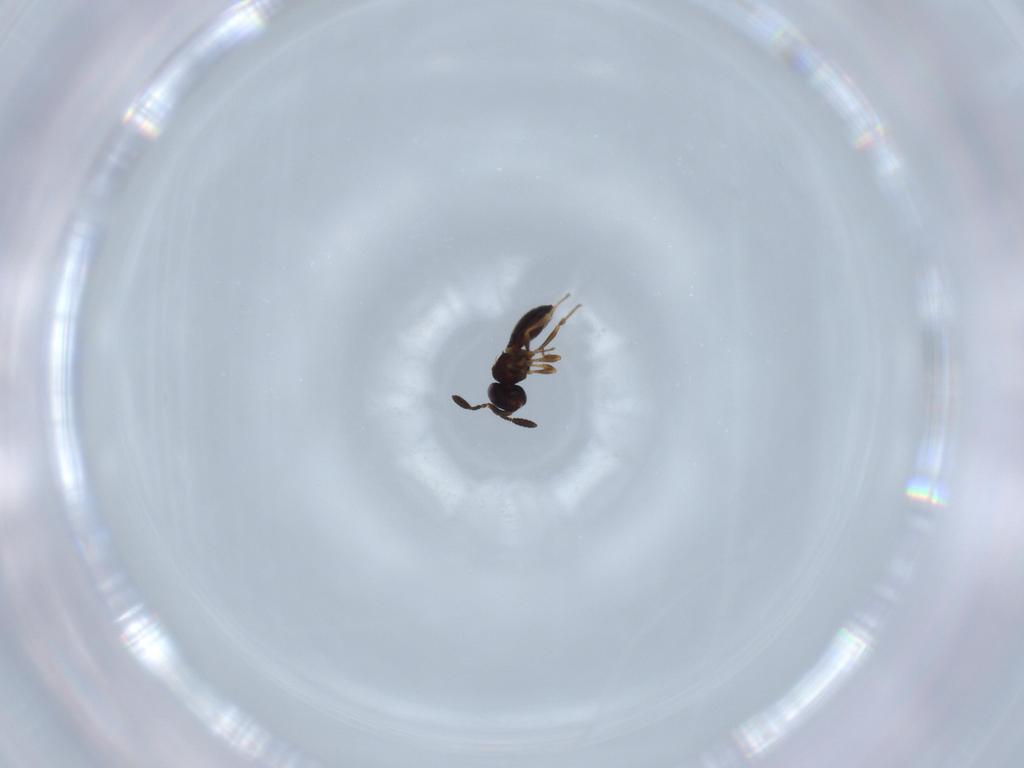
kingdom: Animalia
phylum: Arthropoda
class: Insecta
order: Hymenoptera
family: Scelionidae
